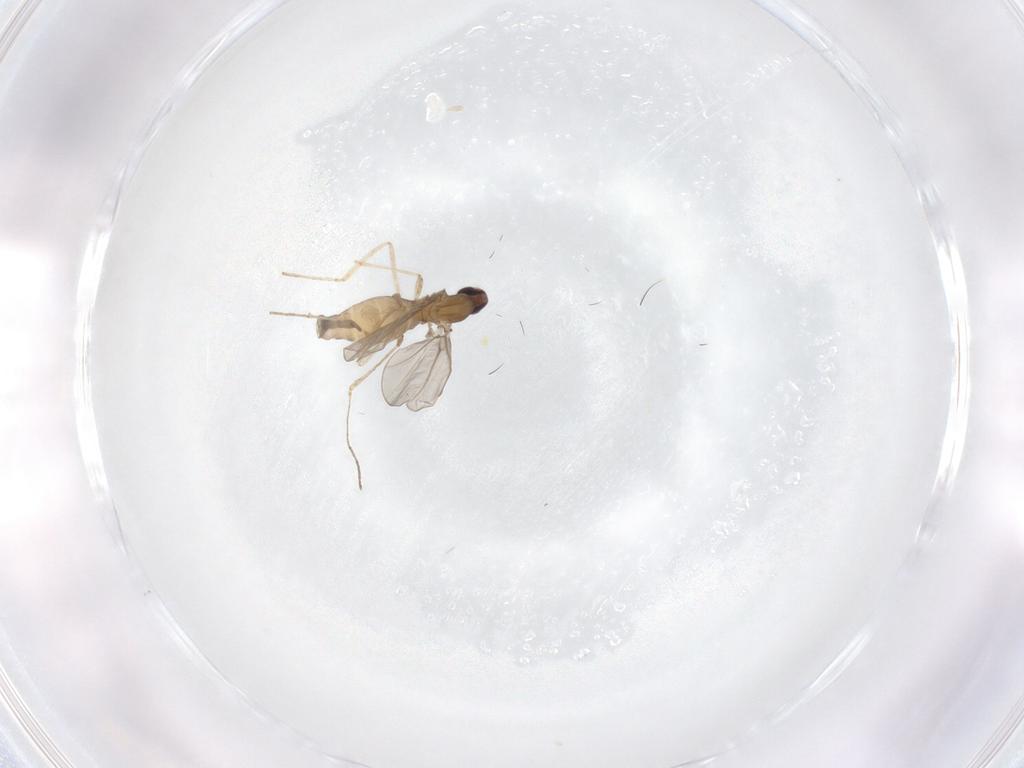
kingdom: Animalia
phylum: Arthropoda
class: Insecta
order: Diptera
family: Cecidomyiidae
